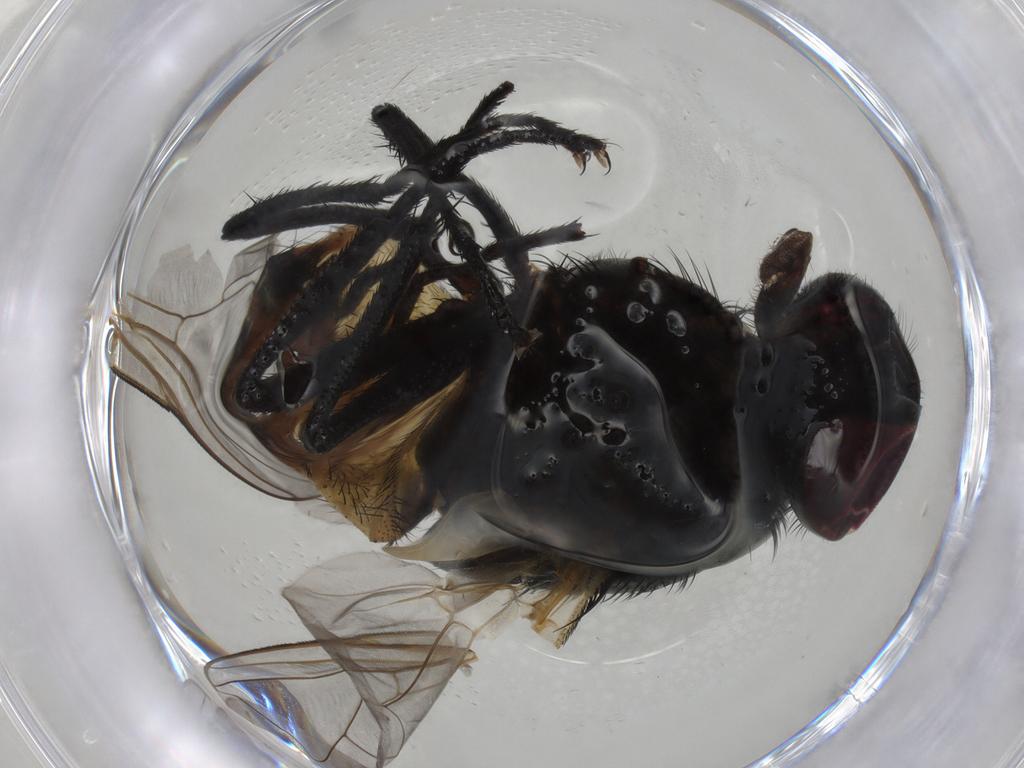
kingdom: Animalia
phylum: Arthropoda
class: Insecta
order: Diptera
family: Muscidae
